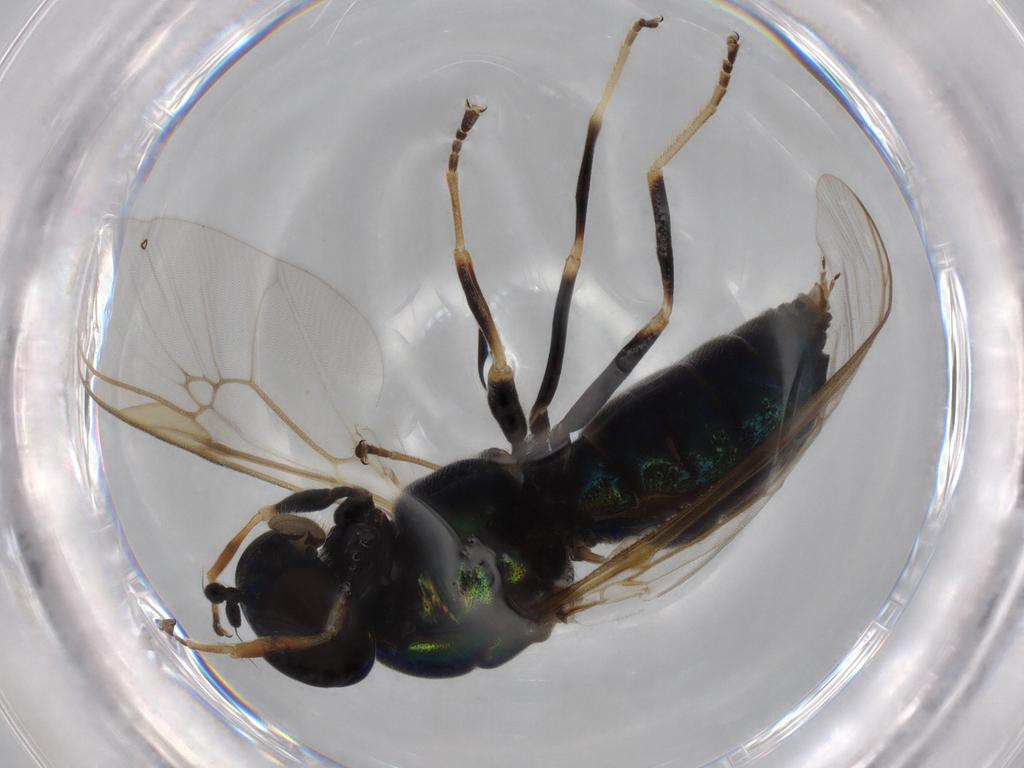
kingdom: Animalia
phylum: Arthropoda
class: Insecta
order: Diptera
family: Stratiomyidae
